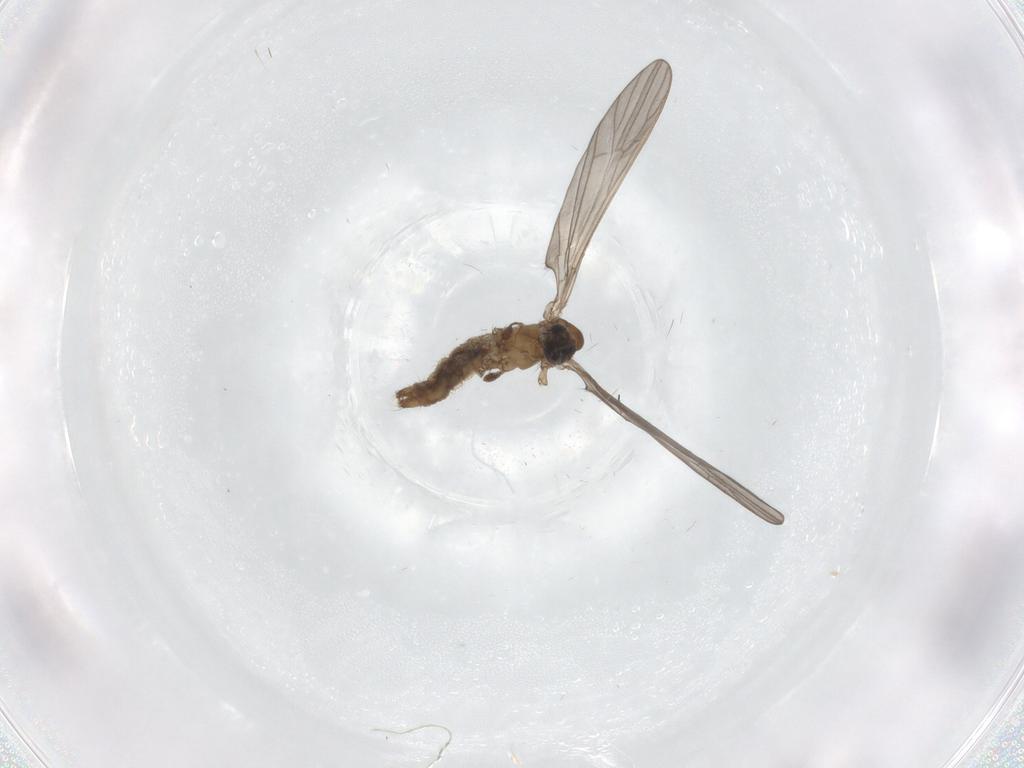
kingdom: Animalia
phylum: Arthropoda
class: Insecta
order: Diptera
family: Limoniidae
